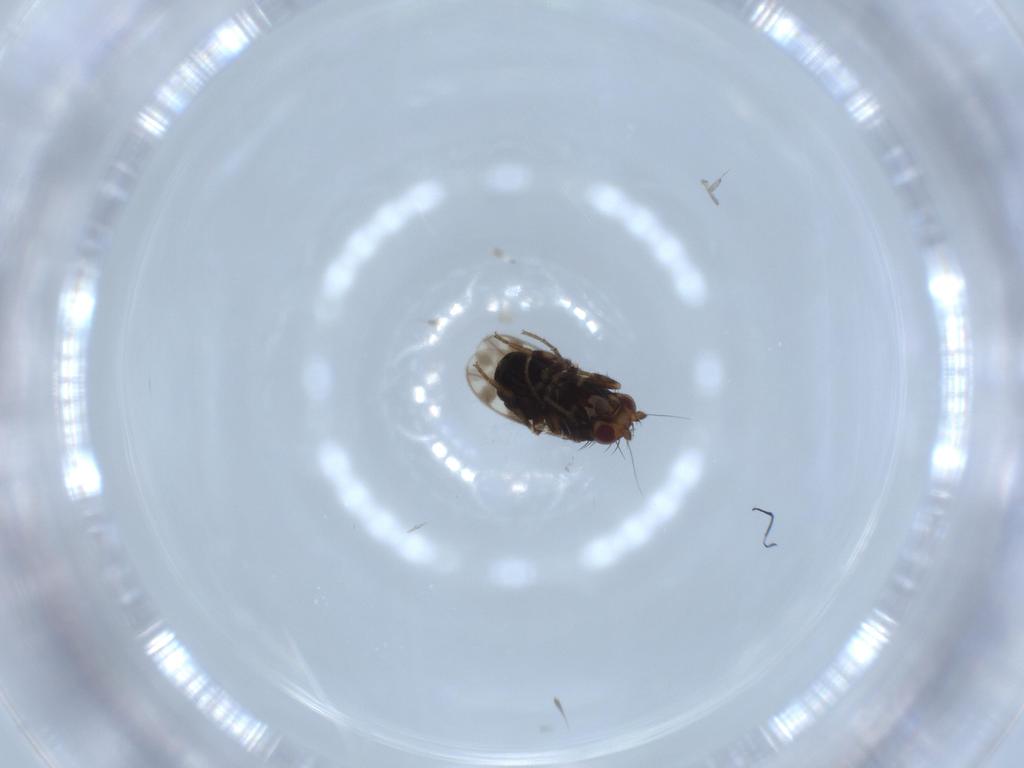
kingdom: Animalia
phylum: Arthropoda
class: Insecta
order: Diptera
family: Sphaeroceridae
